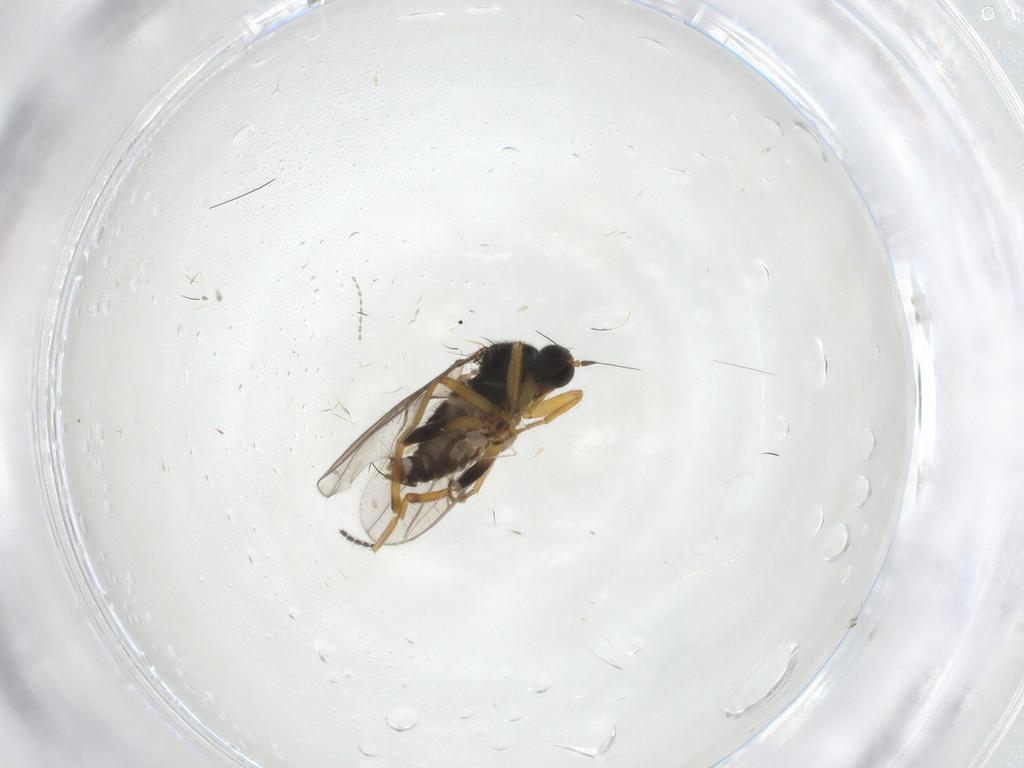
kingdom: Animalia
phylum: Arthropoda
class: Insecta
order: Diptera
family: Hybotidae
